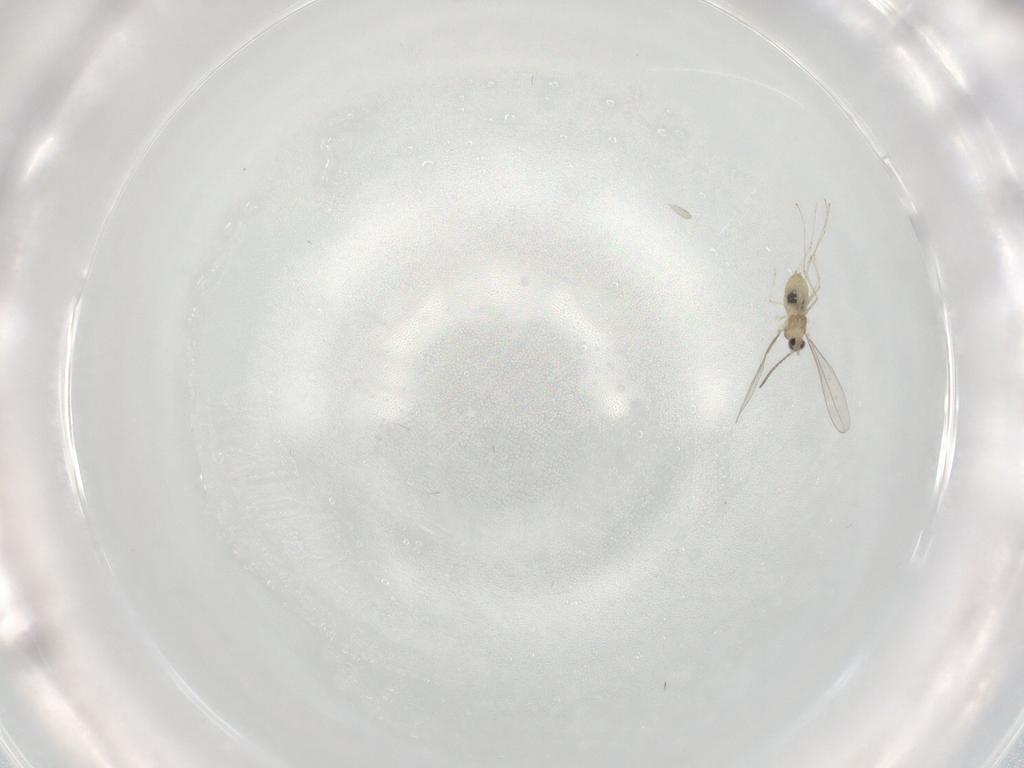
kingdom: Animalia
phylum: Arthropoda
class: Insecta
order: Diptera
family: Cecidomyiidae
